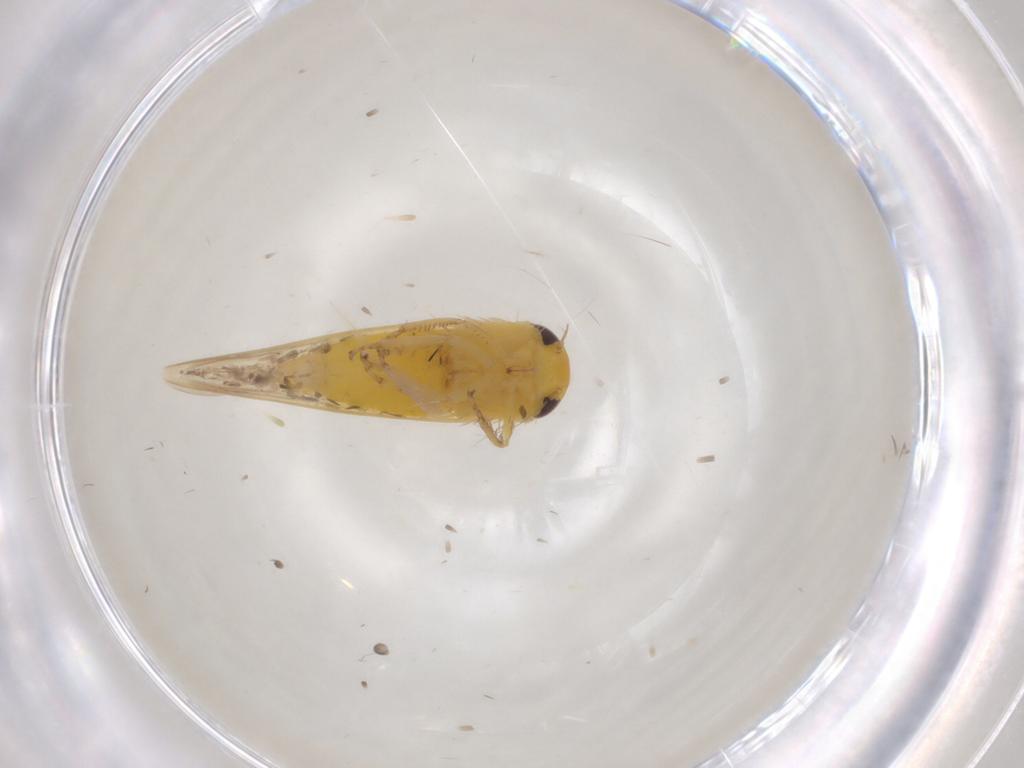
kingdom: Animalia
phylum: Arthropoda
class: Insecta
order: Hemiptera
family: Cicadellidae
